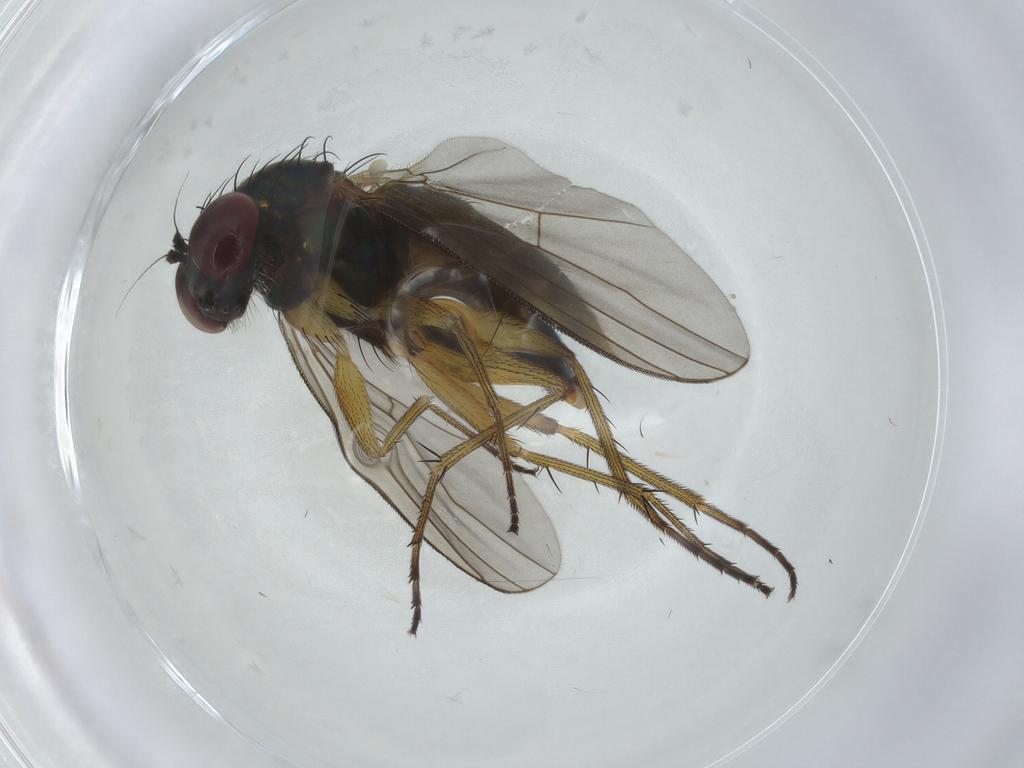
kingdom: Animalia
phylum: Arthropoda
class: Insecta
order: Diptera
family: Dolichopodidae
